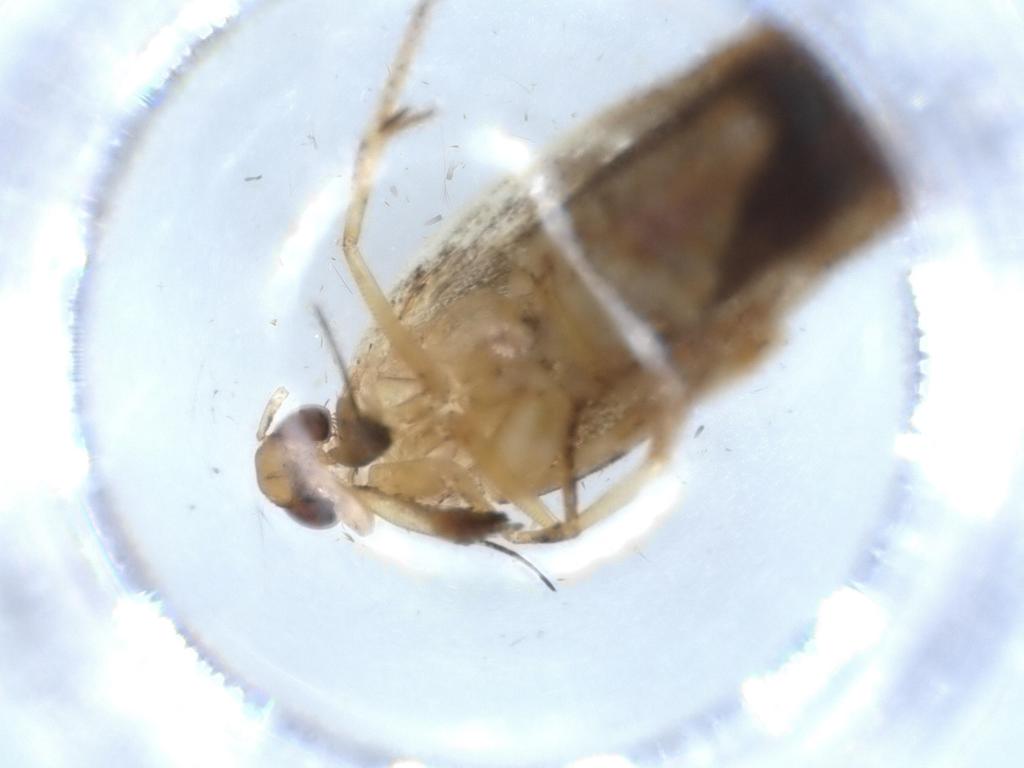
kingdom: Animalia
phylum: Arthropoda
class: Insecta
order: Lepidoptera
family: Gelechiidae
